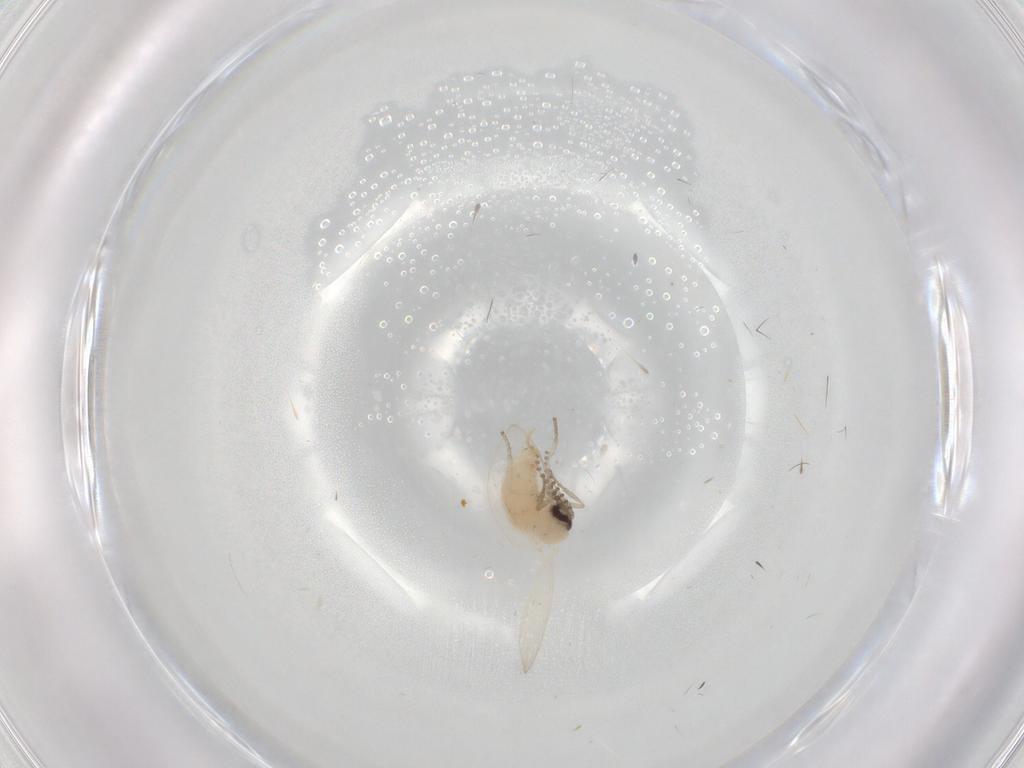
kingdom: Animalia
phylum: Arthropoda
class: Insecta
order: Diptera
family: Psychodidae
